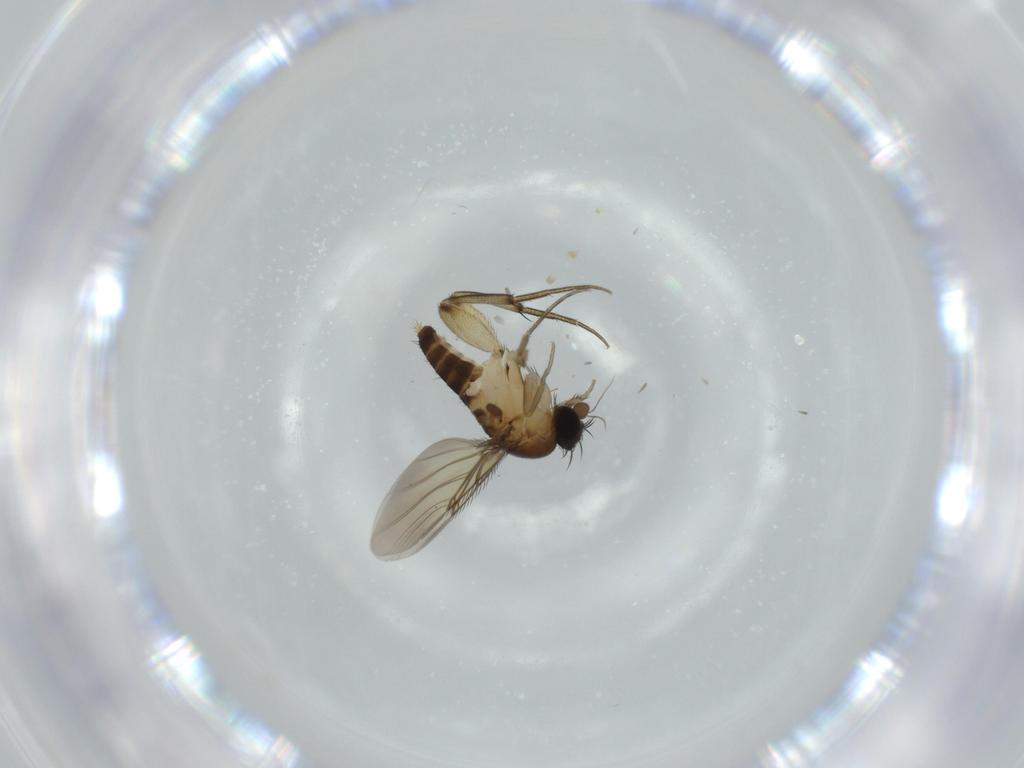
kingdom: Animalia
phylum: Arthropoda
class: Insecta
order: Diptera
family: Phoridae
